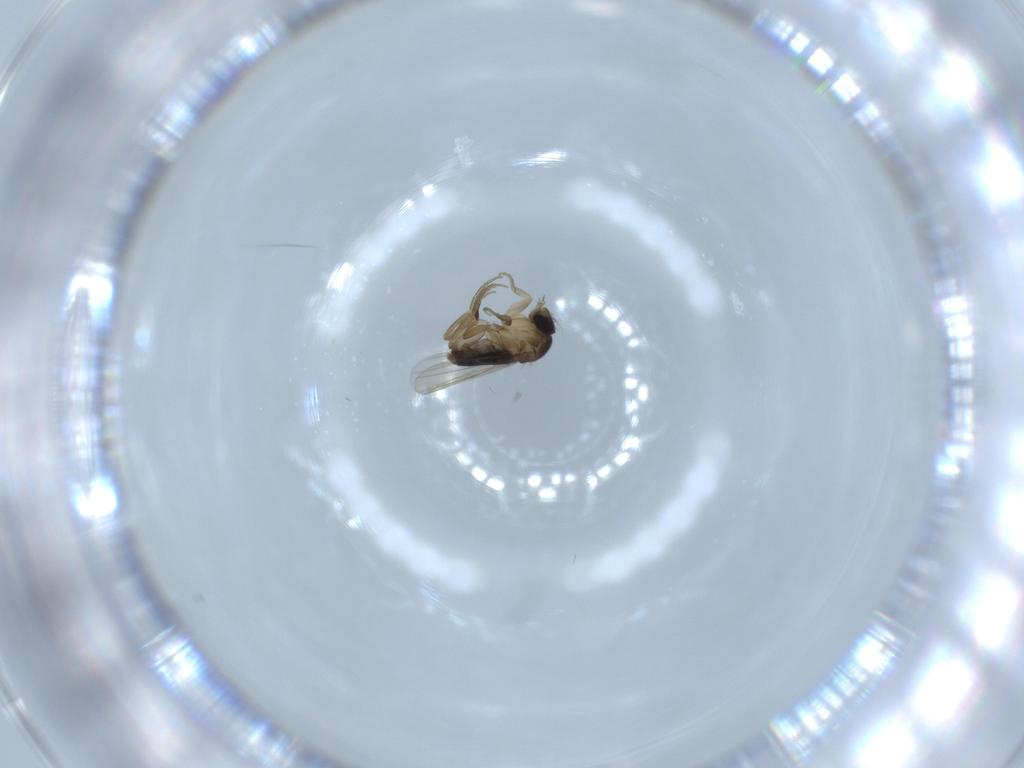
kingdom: Animalia
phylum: Arthropoda
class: Insecta
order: Diptera
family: Phoridae
